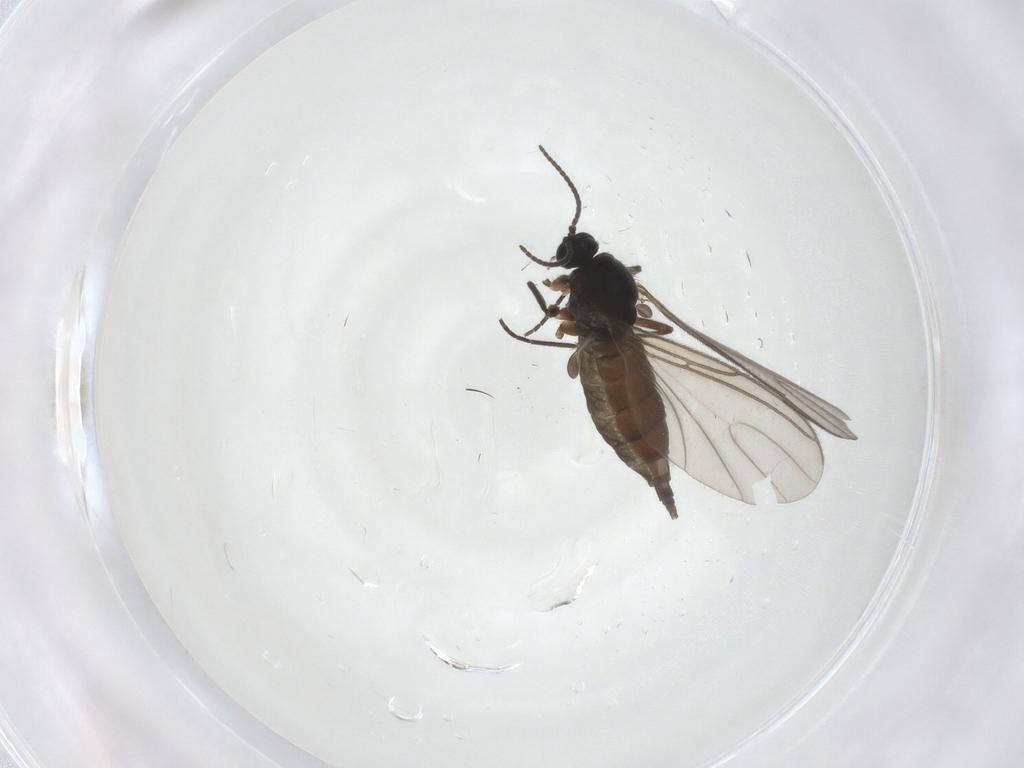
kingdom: Animalia
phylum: Arthropoda
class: Insecta
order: Diptera
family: Sciaridae
